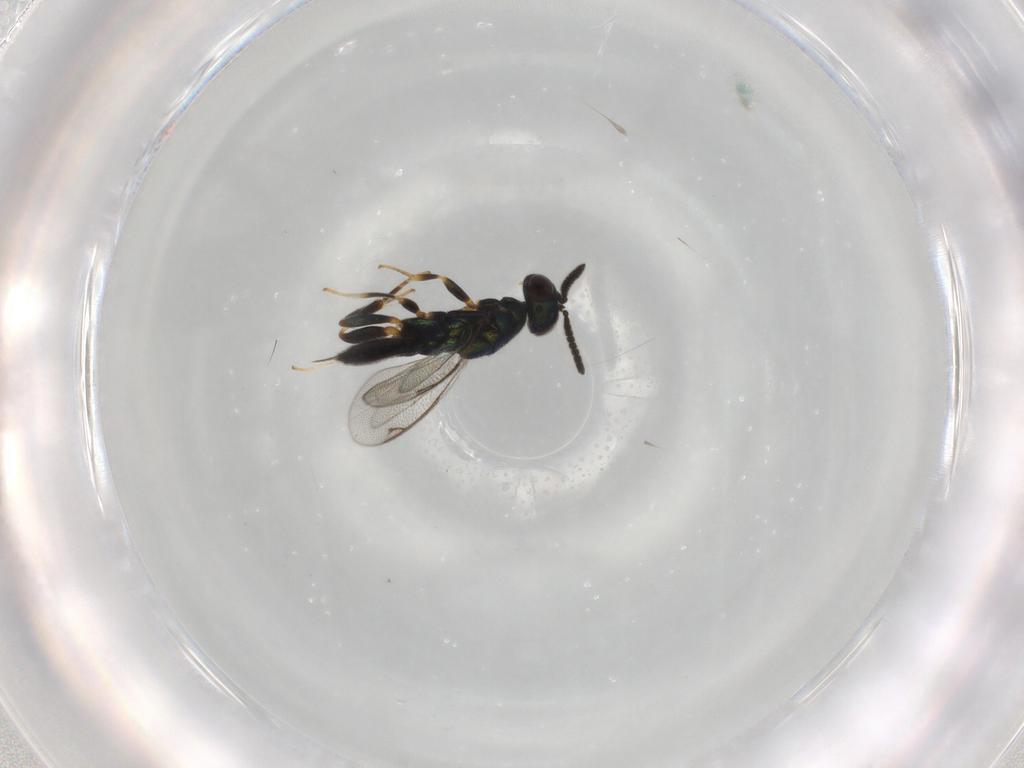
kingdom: Animalia
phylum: Arthropoda
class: Insecta
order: Hymenoptera
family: Cleonyminae
